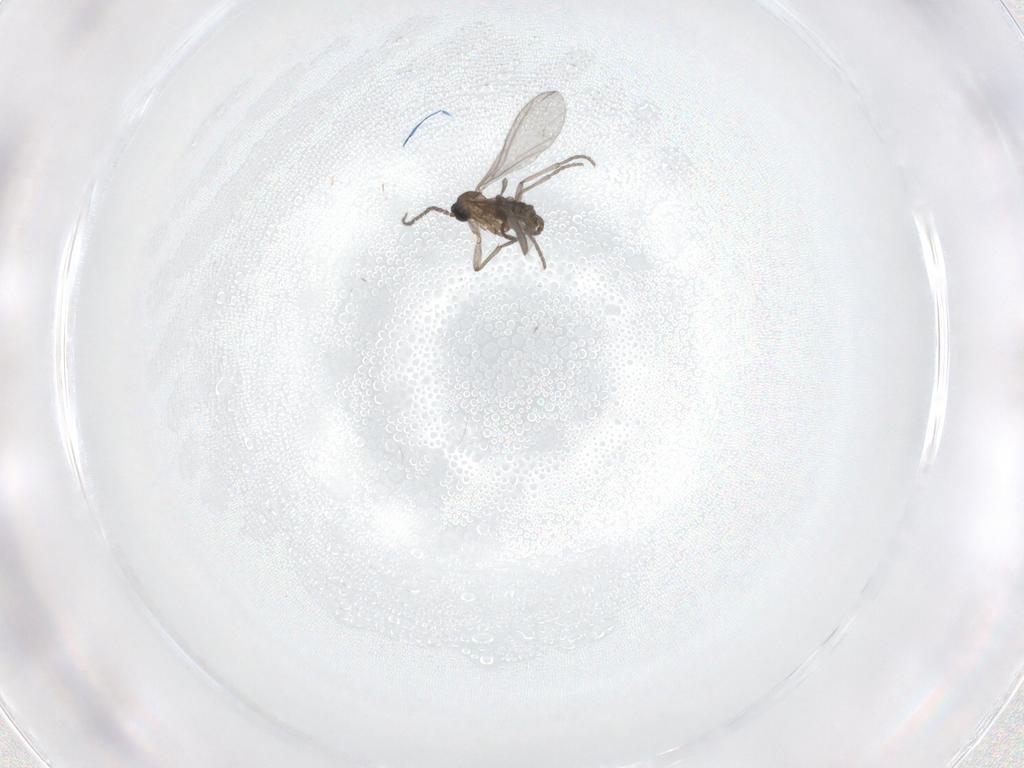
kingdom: Animalia
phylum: Arthropoda
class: Insecta
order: Diptera
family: Sciaridae
